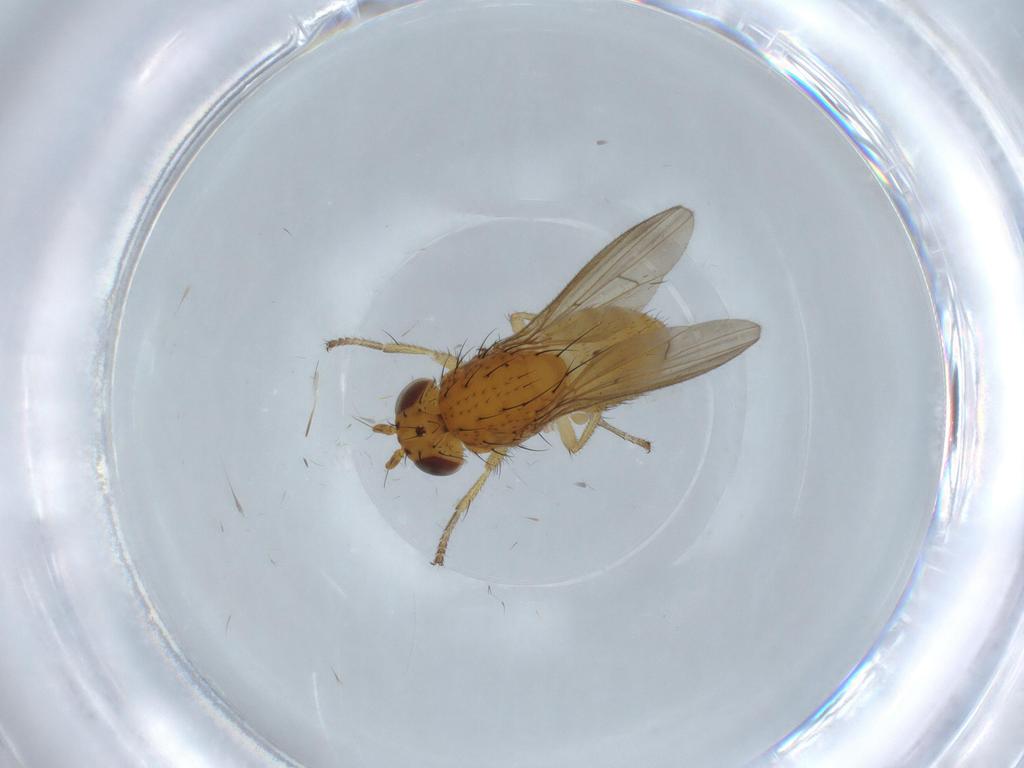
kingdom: Animalia
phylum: Arthropoda
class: Insecta
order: Diptera
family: Limoniidae
